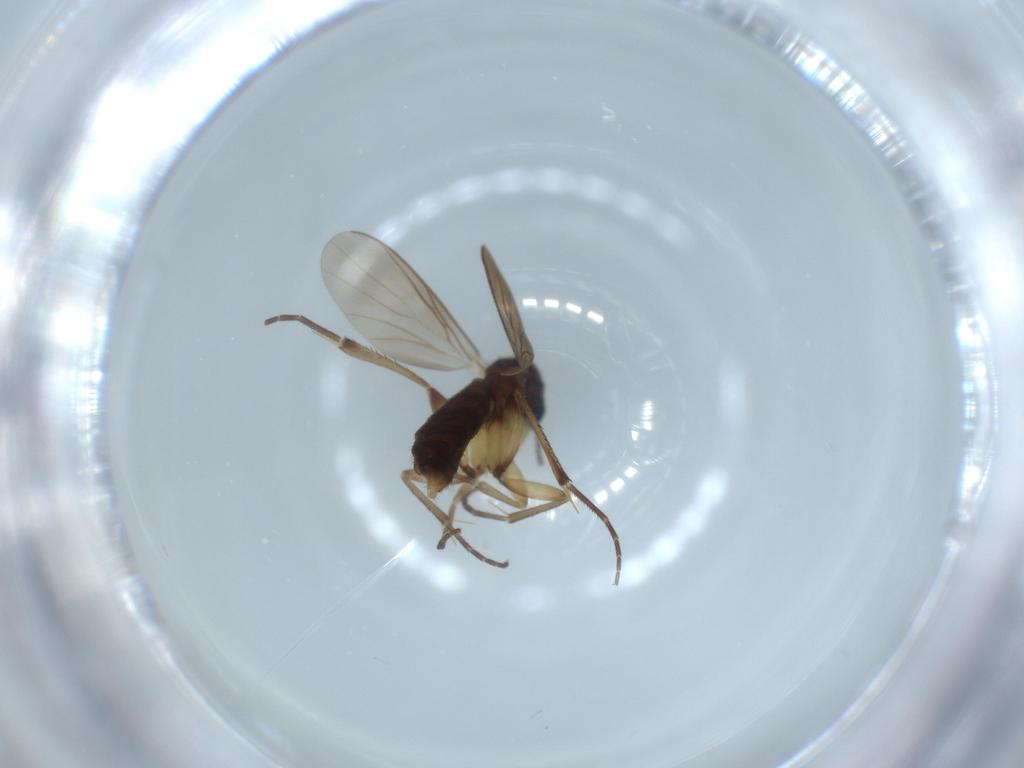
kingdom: Animalia
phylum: Arthropoda
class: Insecta
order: Diptera
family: Mycetophilidae
